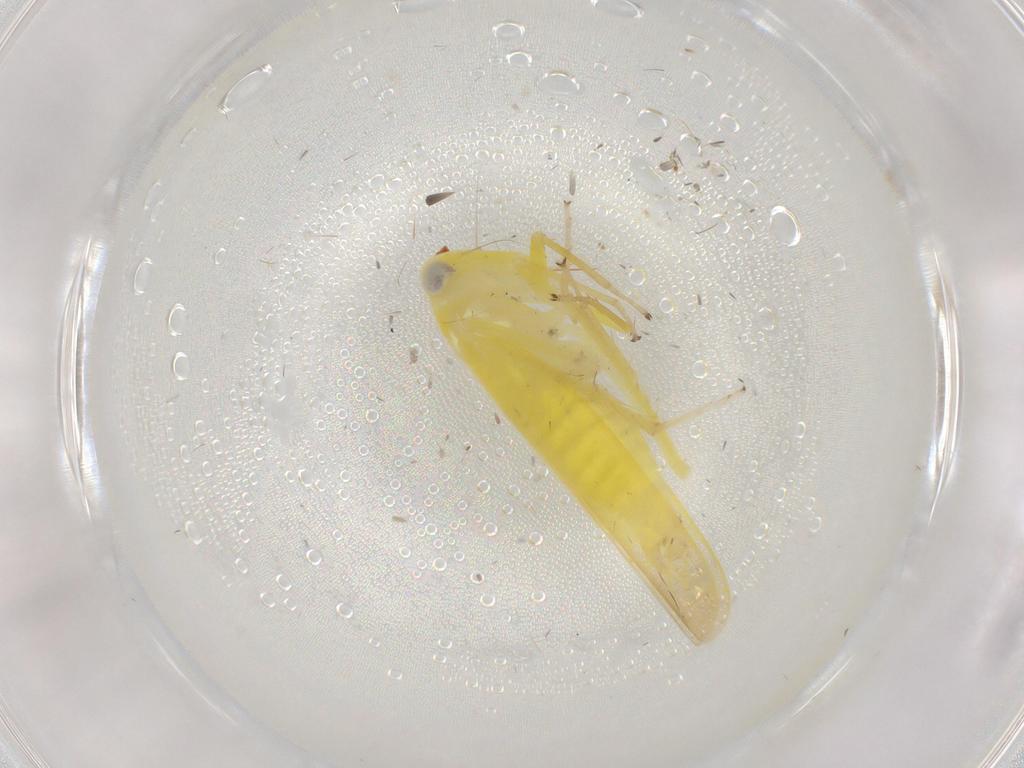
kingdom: Animalia
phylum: Arthropoda
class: Insecta
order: Hemiptera
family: Cicadellidae
